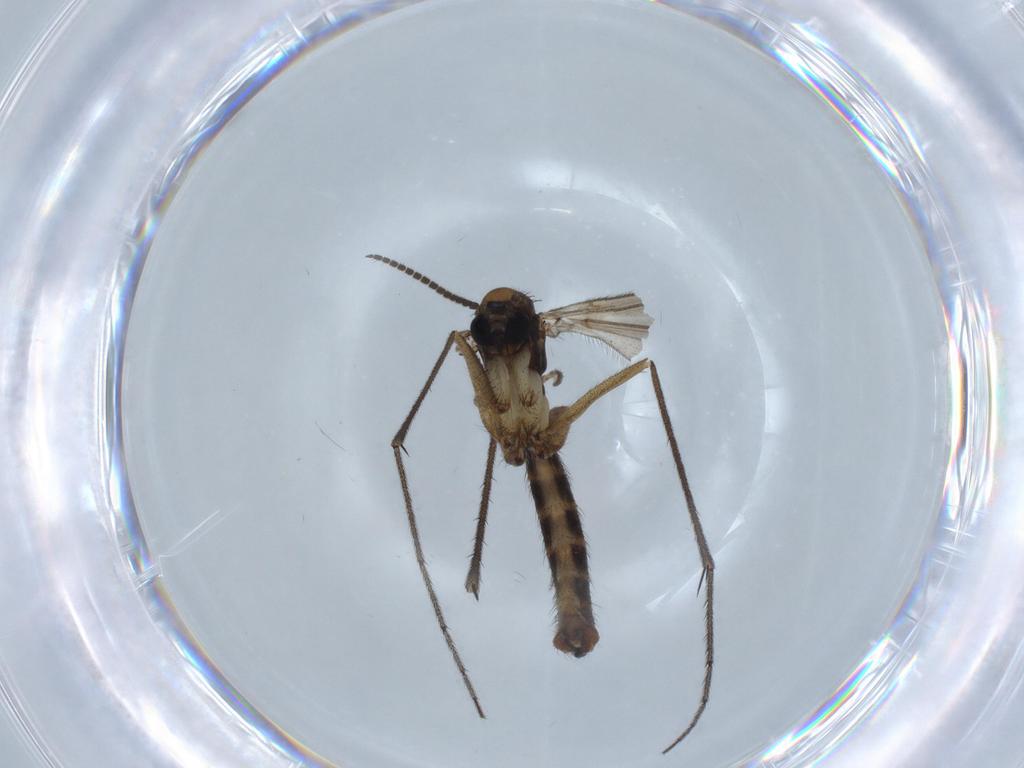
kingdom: Animalia
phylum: Arthropoda
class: Insecta
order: Diptera
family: Ditomyiidae
